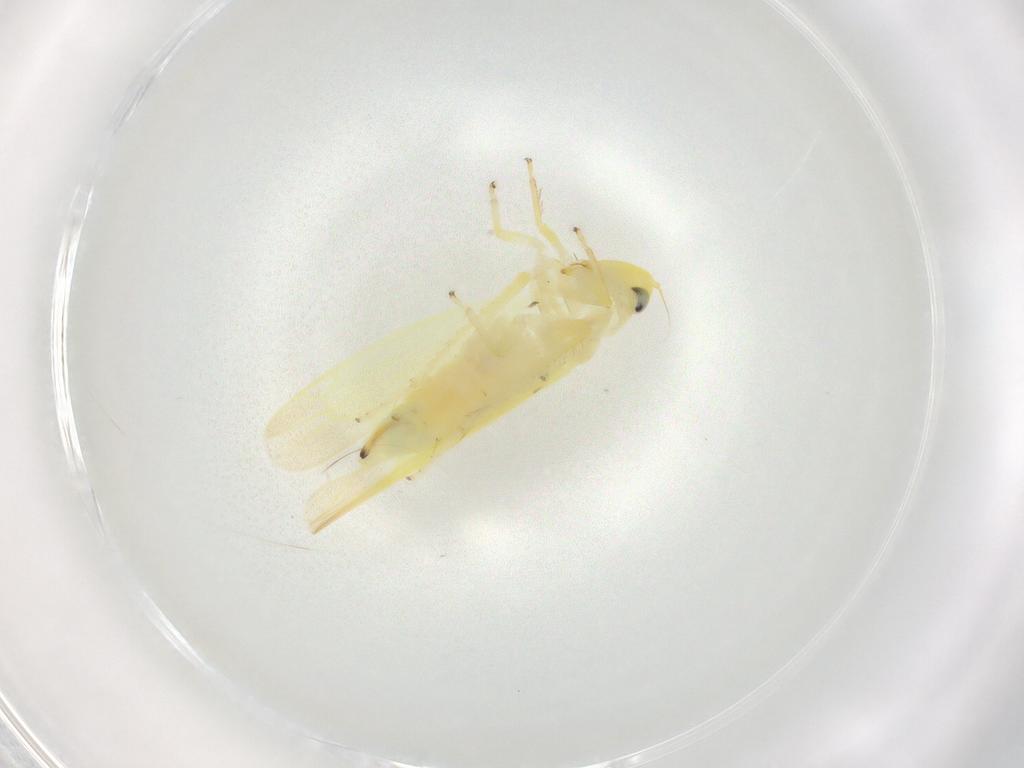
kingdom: Animalia
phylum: Arthropoda
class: Insecta
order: Hemiptera
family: Cicadellidae
